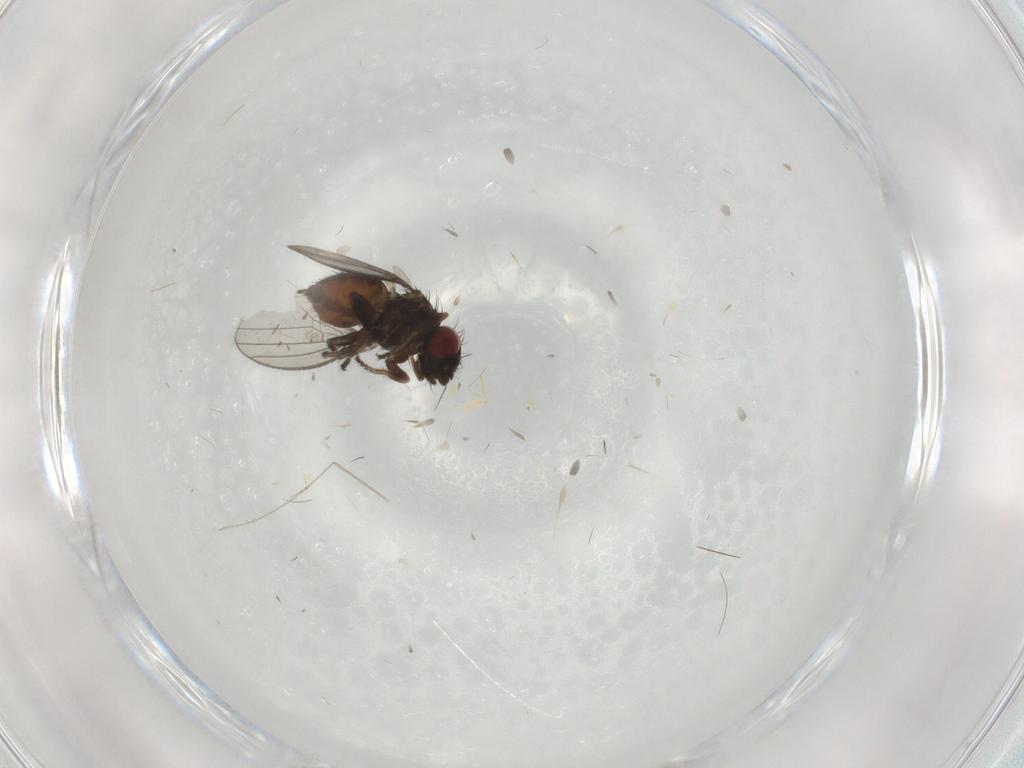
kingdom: Animalia
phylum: Arthropoda
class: Insecta
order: Diptera
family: Milichiidae
